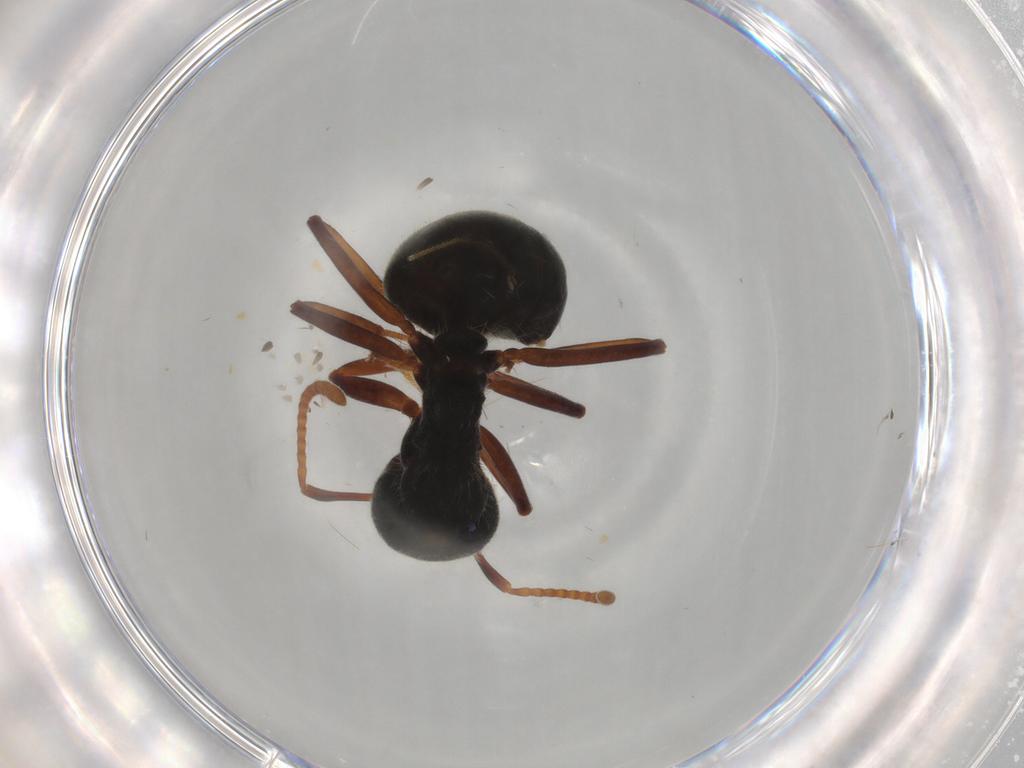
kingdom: Animalia
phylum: Arthropoda
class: Insecta
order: Hymenoptera
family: Formicidae
